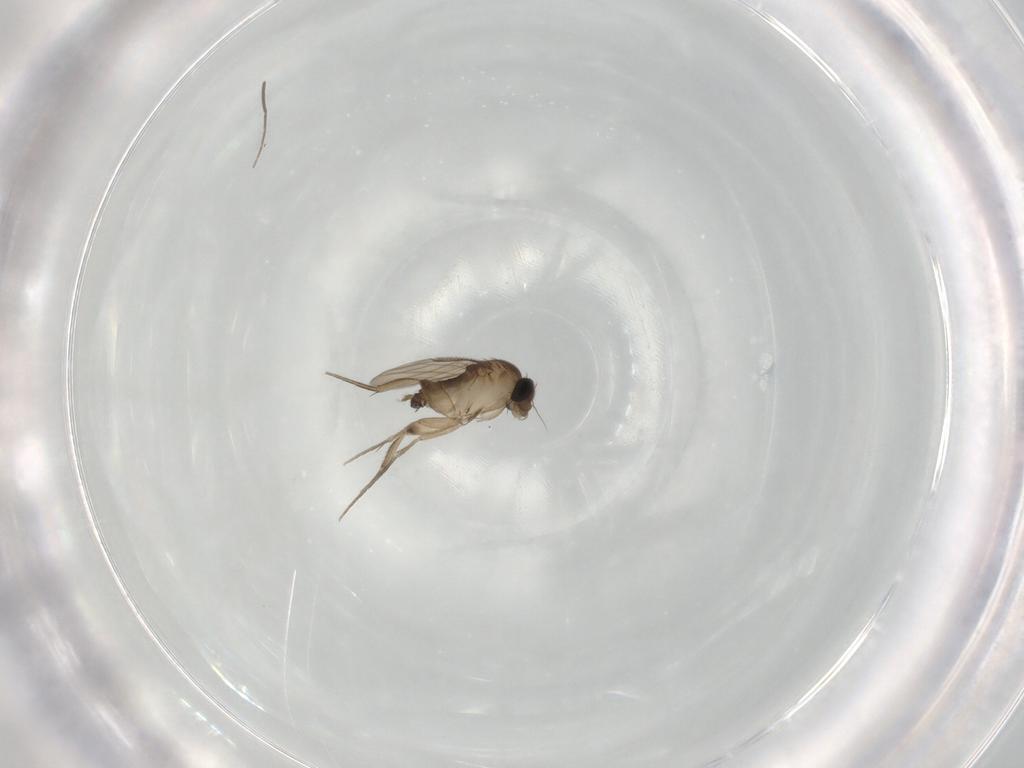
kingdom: Animalia
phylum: Arthropoda
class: Insecta
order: Diptera
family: Phoridae
